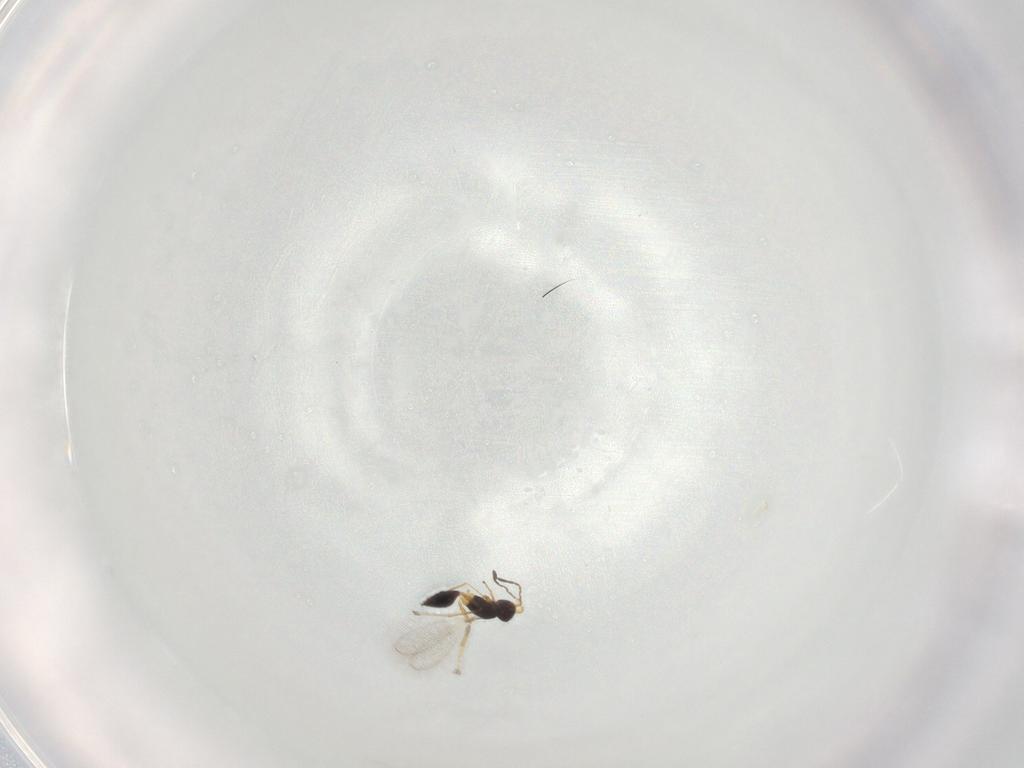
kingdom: Animalia
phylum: Arthropoda
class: Insecta
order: Hymenoptera
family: Ichneumonidae
